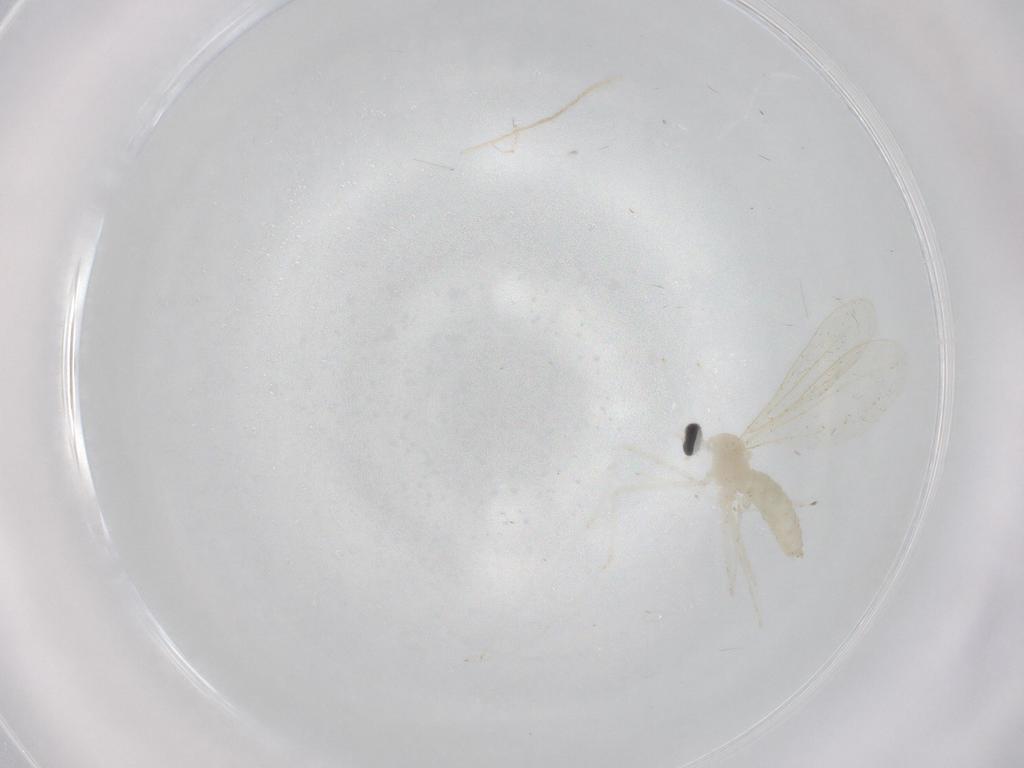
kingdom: Animalia
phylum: Arthropoda
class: Insecta
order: Diptera
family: Cecidomyiidae
